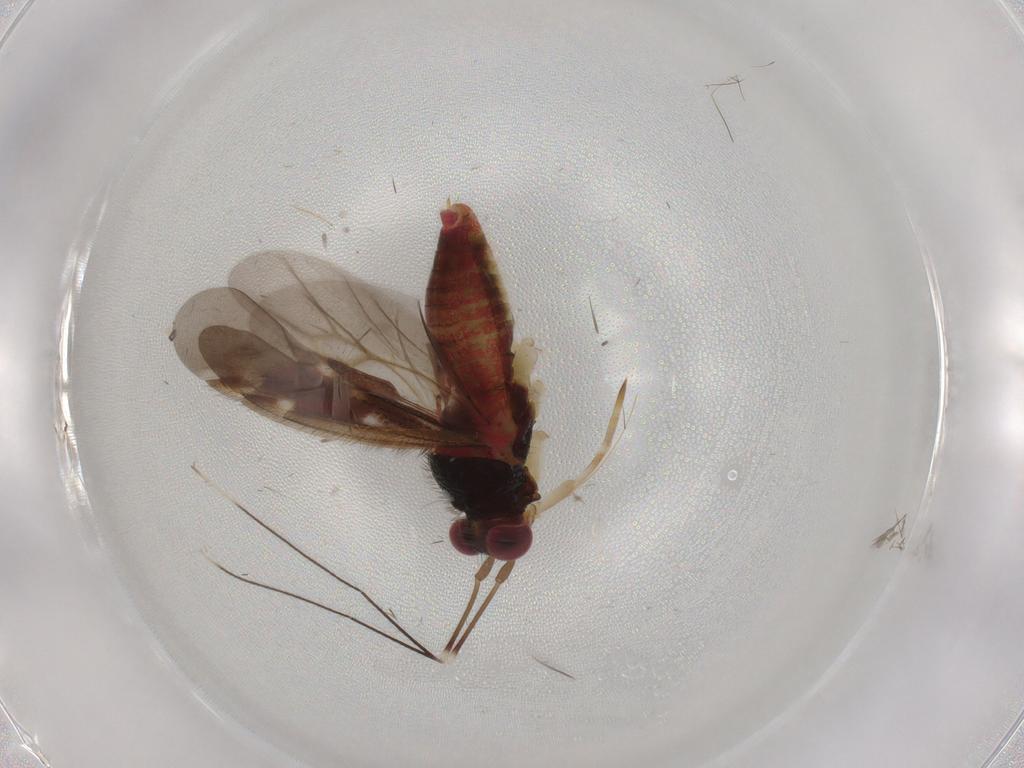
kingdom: Animalia
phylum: Arthropoda
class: Insecta
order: Hemiptera
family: Miridae
